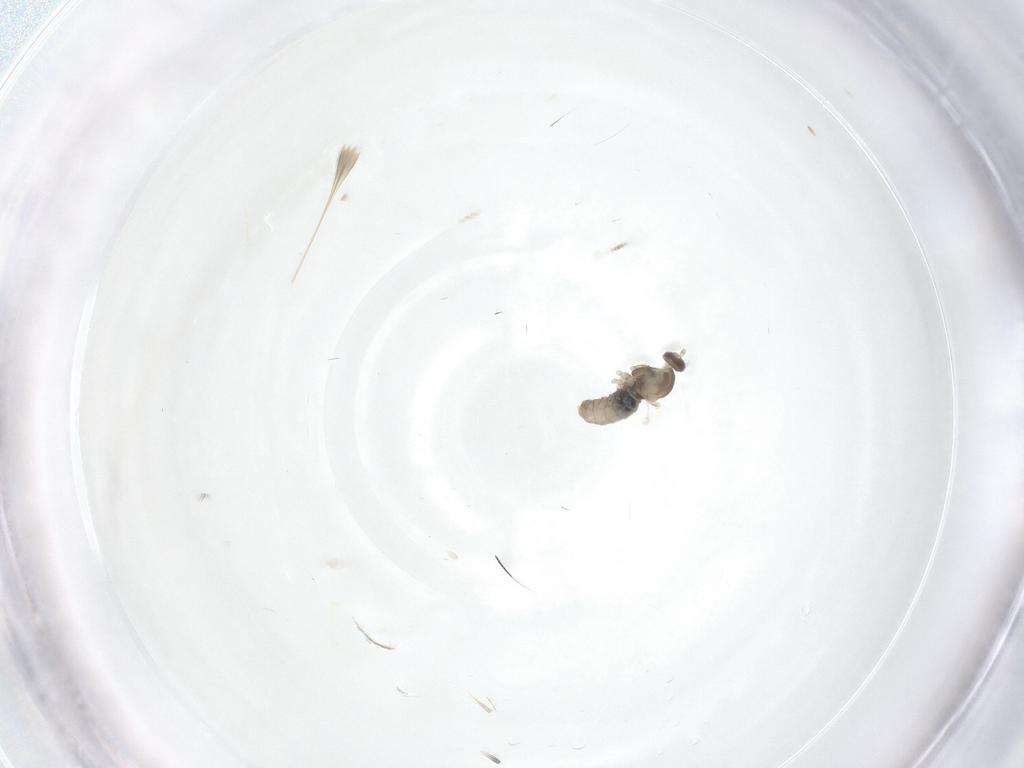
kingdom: Animalia
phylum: Arthropoda
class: Insecta
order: Diptera
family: Cecidomyiidae
